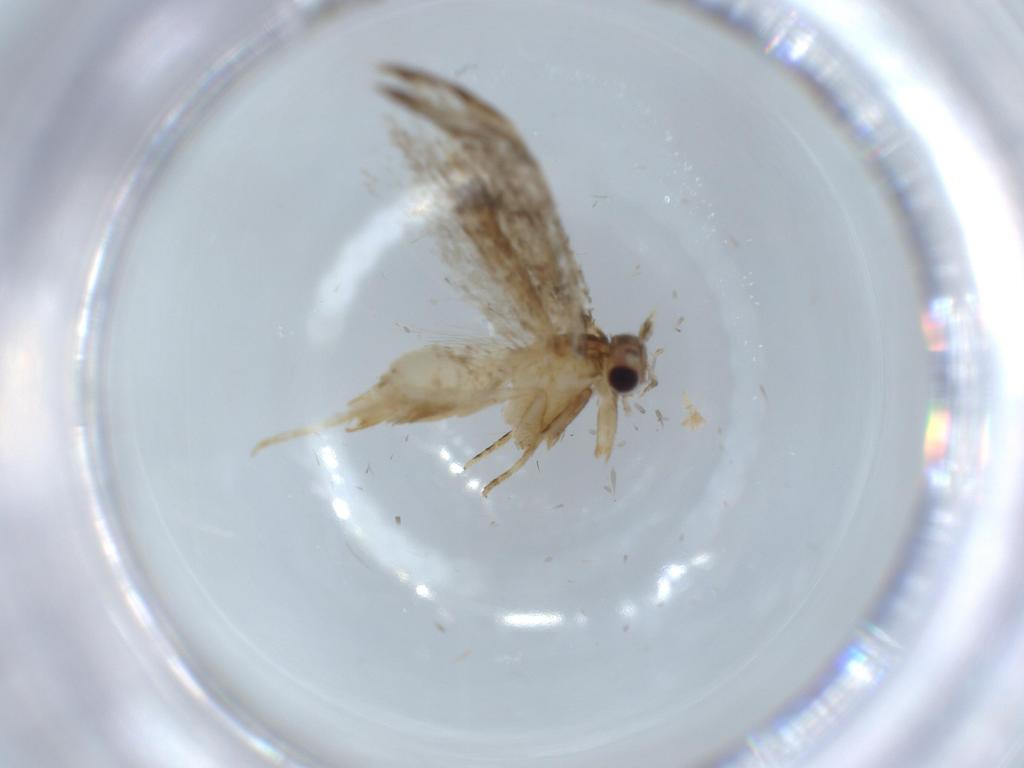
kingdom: Animalia
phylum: Arthropoda
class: Insecta
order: Lepidoptera
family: Tineidae
